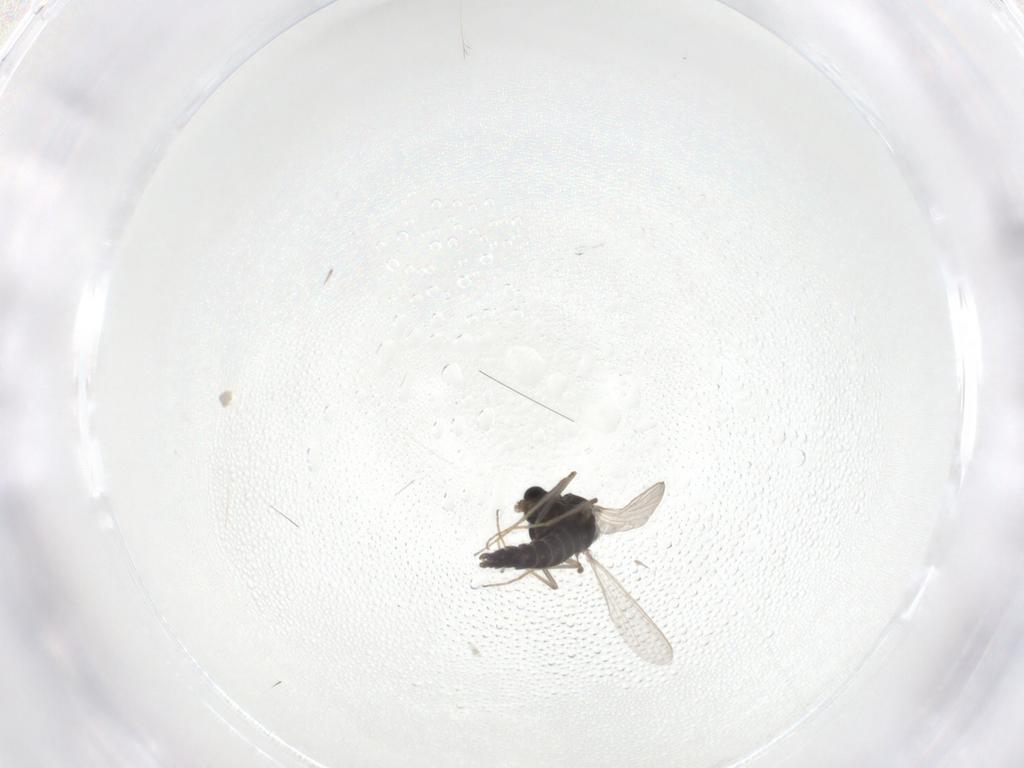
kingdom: Animalia
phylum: Arthropoda
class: Insecta
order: Diptera
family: Chironomidae
